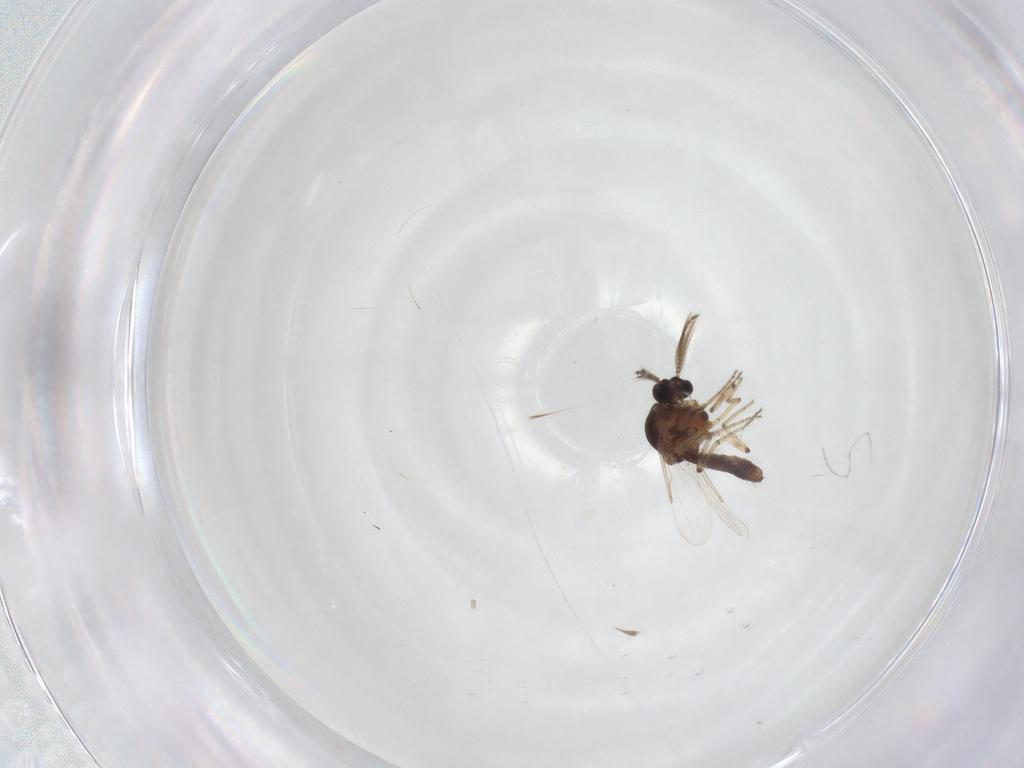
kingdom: Animalia
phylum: Arthropoda
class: Insecta
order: Diptera
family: Ceratopogonidae
